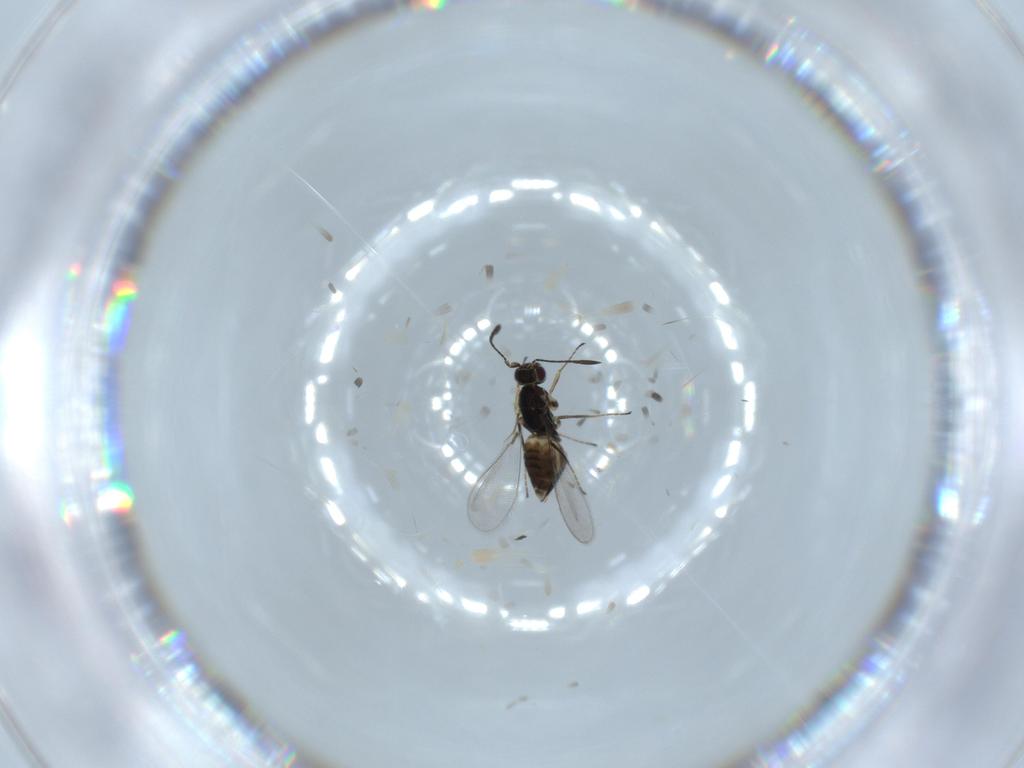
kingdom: Animalia
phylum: Arthropoda
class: Insecta
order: Hymenoptera
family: Mymaridae
